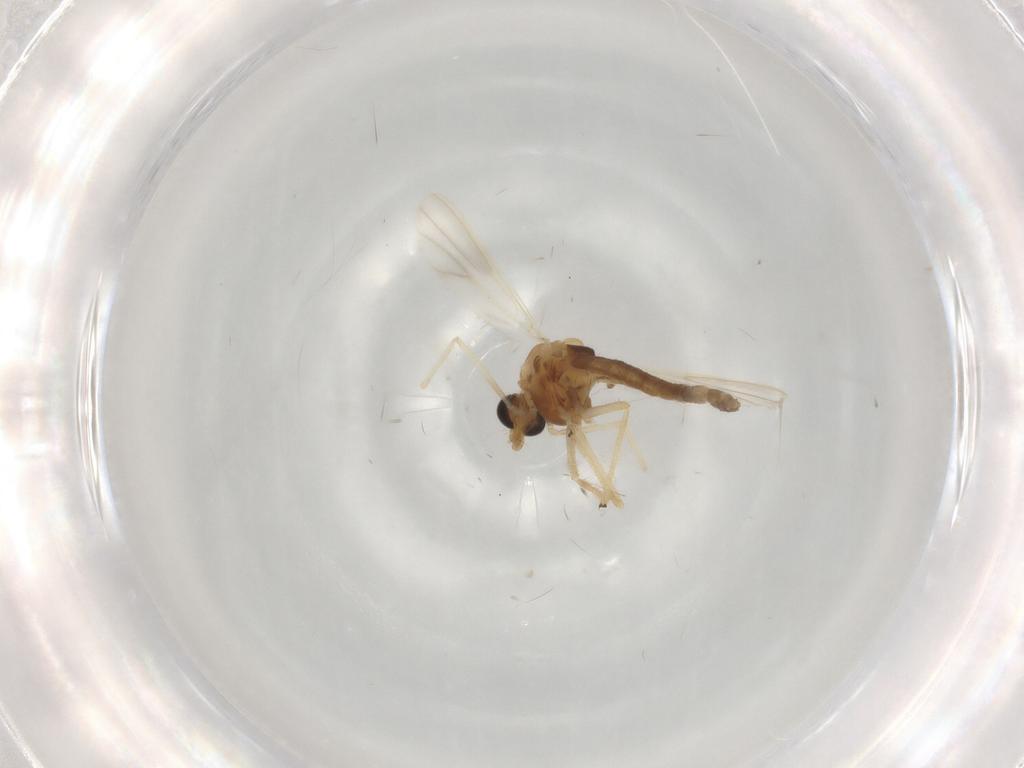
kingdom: Animalia
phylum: Arthropoda
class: Insecta
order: Diptera
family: Chironomidae
